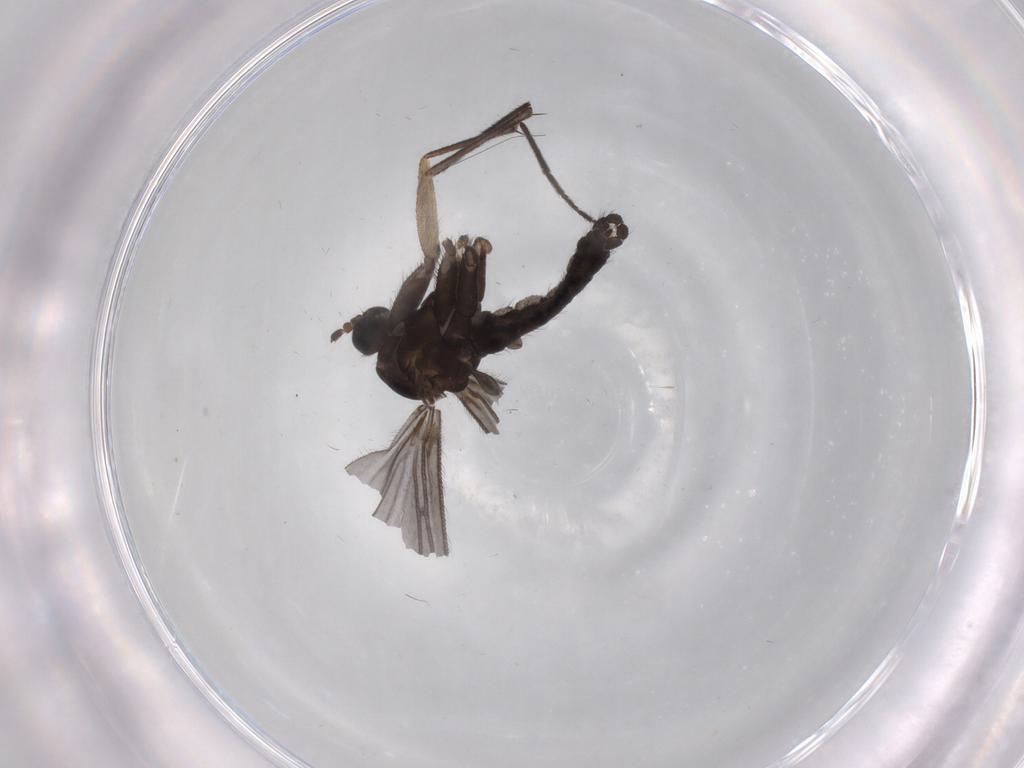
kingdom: Animalia
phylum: Arthropoda
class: Insecta
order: Diptera
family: Sciaridae
